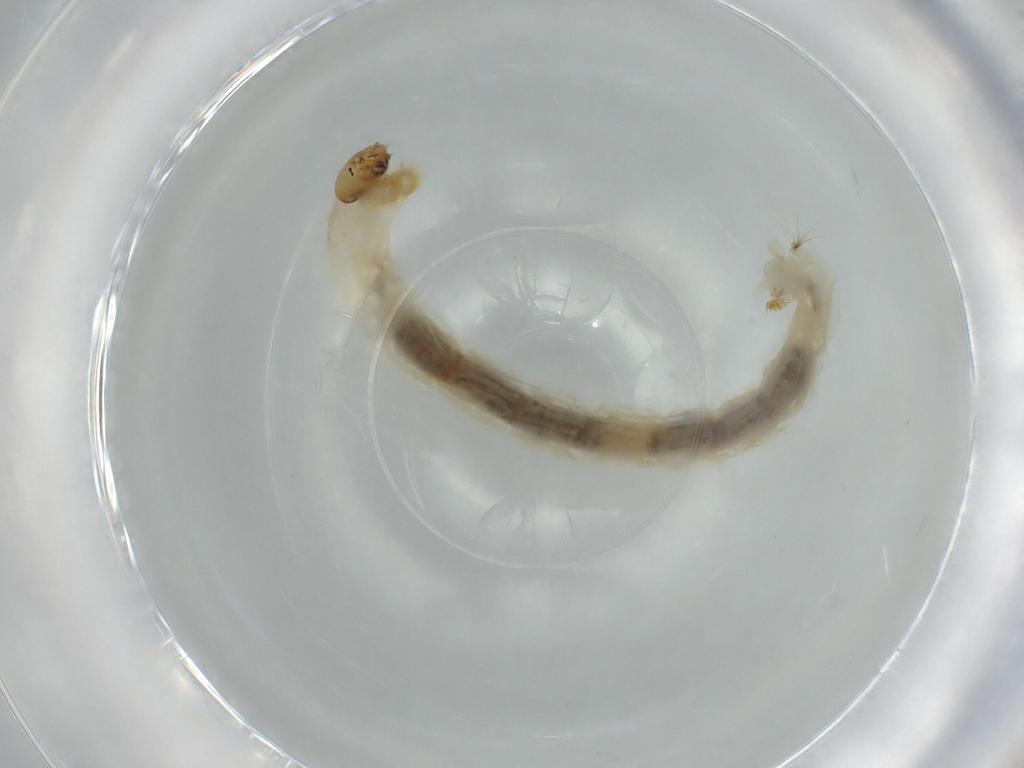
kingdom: Animalia
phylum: Arthropoda
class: Insecta
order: Diptera
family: Chironomidae
